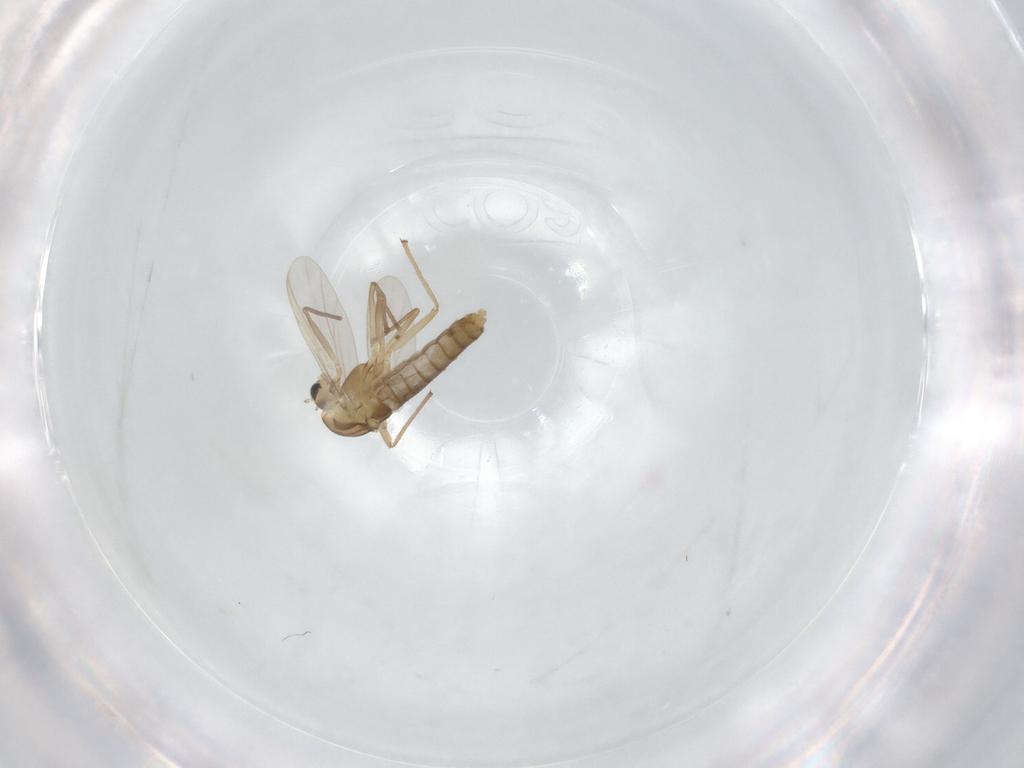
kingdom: Animalia
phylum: Arthropoda
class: Insecta
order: Diptera
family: Chironomidae
